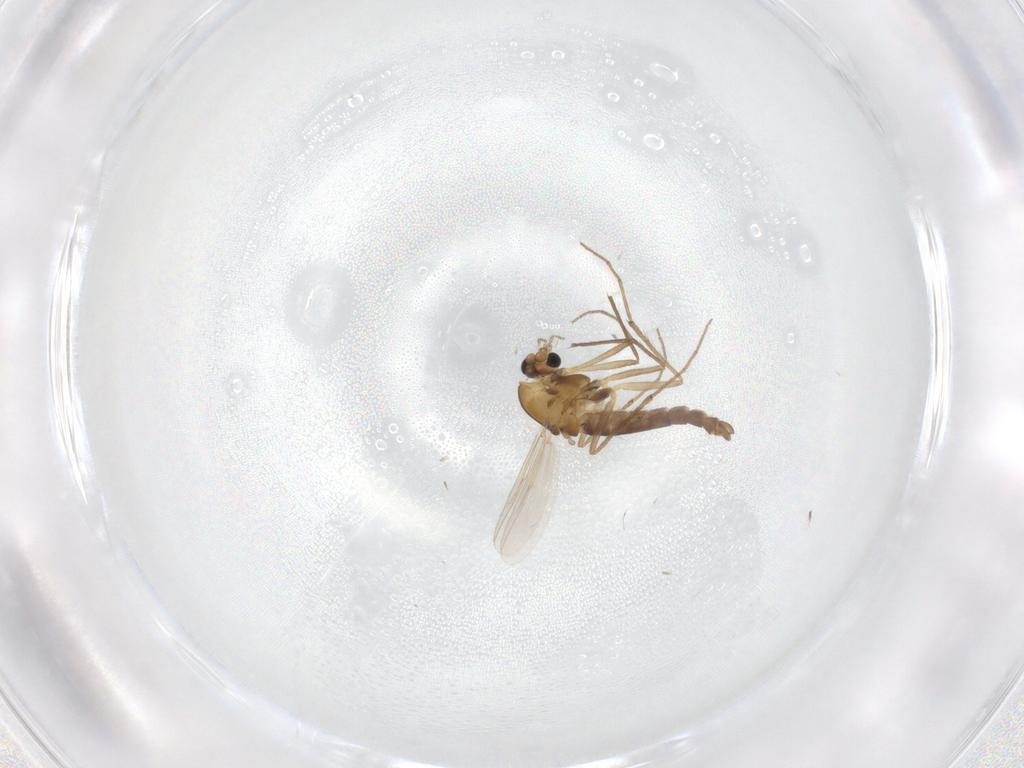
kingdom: Animalia
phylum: Arthropoda
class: Insecta
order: Diptera
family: Chironomidae
